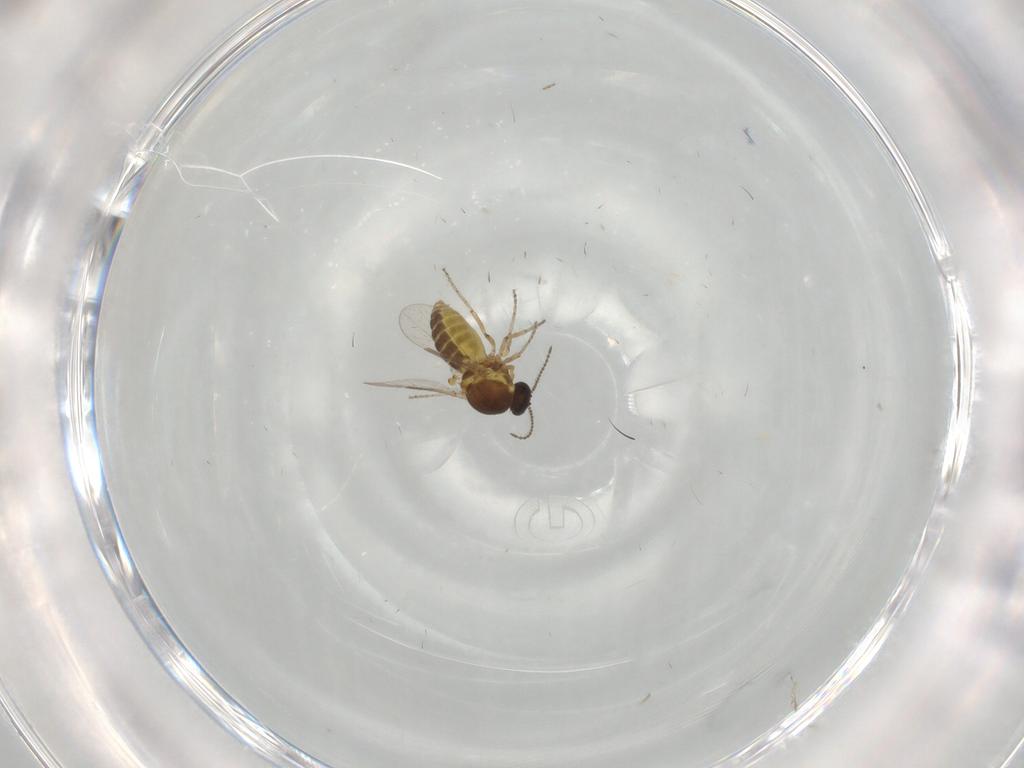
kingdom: Animalia
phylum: Arthropoda
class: Insecta
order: Diptera
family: Ceratopogonidae
